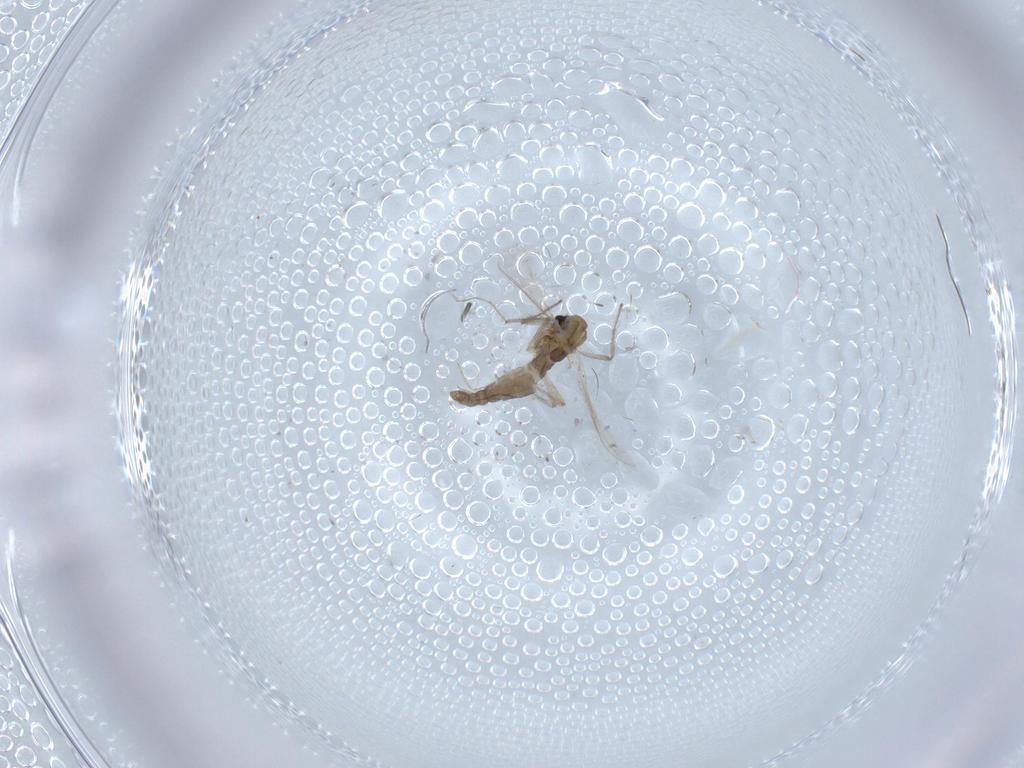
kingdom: Animalia
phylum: Arthropoda
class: Insecta
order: Diptera
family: Chironomidae
